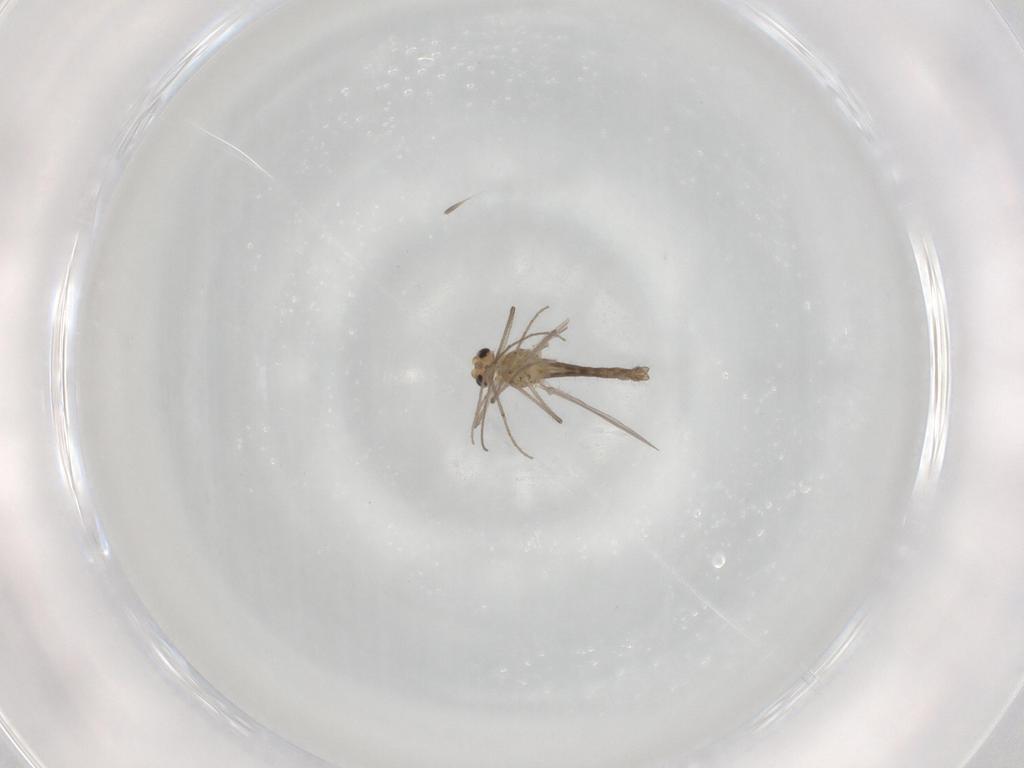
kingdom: Animalia
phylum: Arthropoda
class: Insecta
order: Diptera
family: Chironomidae
